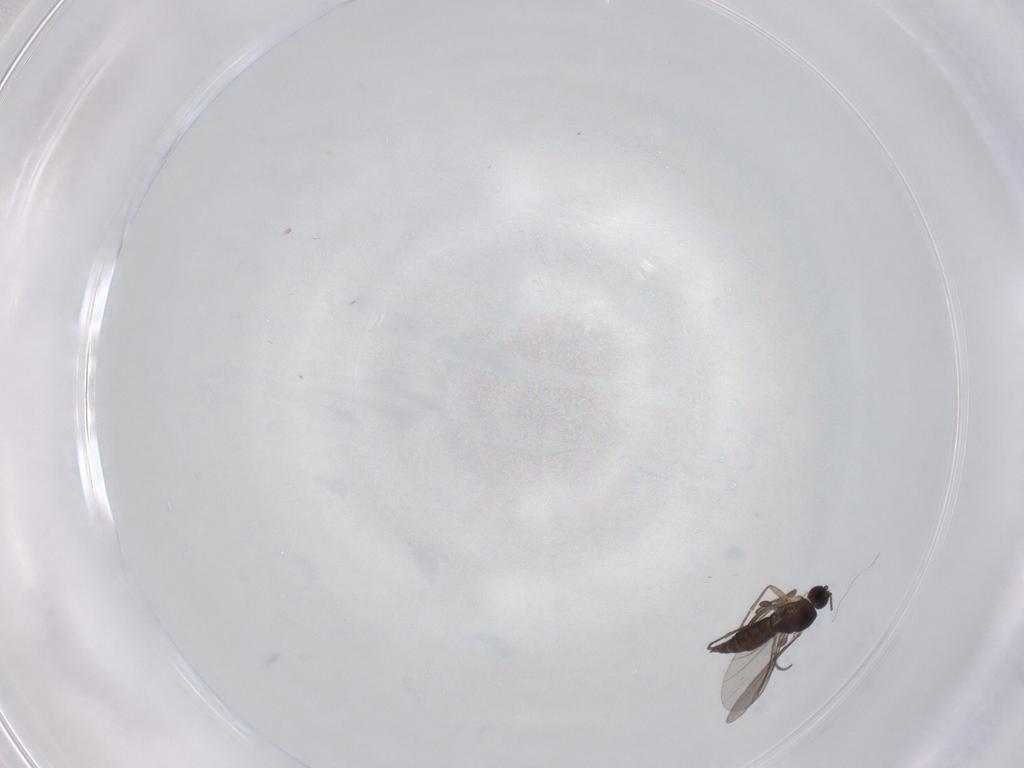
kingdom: Animalia
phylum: Arthropoda
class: Insecta
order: Diptera
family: Sciaridae
